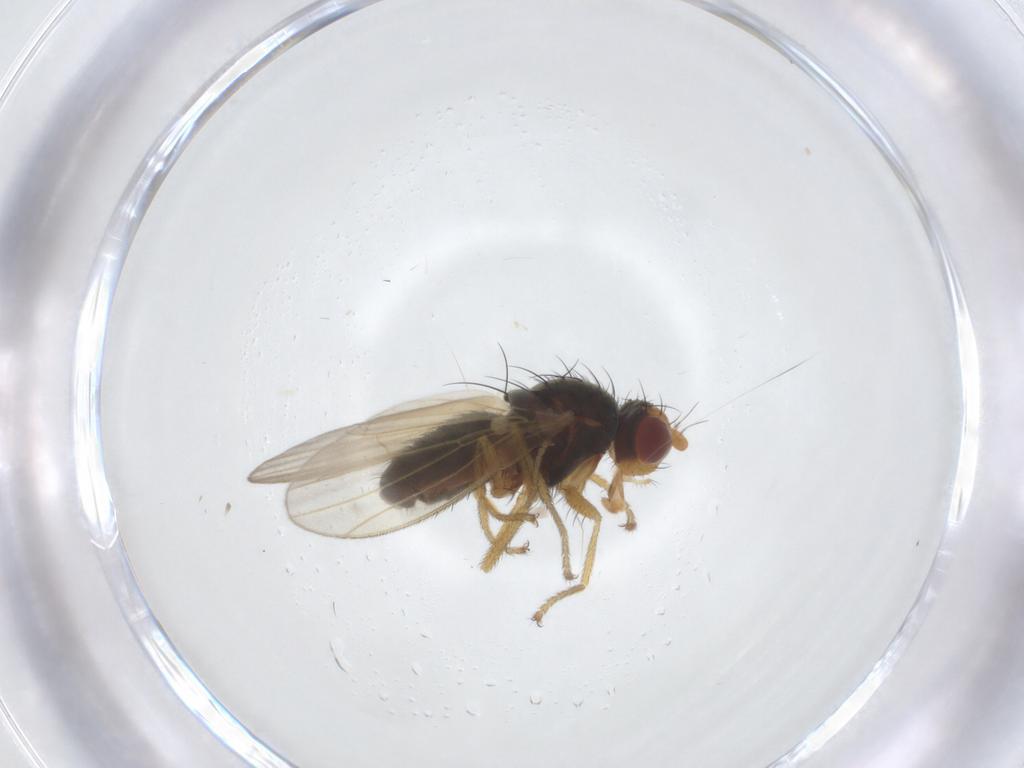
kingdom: Animalia
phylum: Arthropoda
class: Insecta
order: Diptera
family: Heleomyzidae
